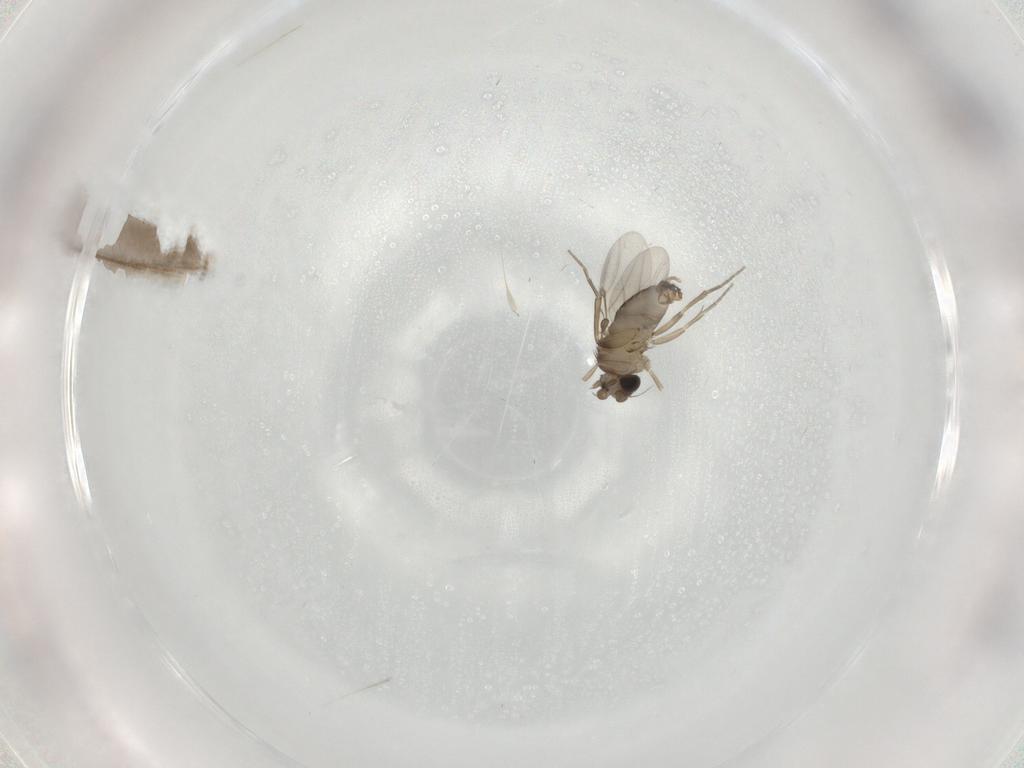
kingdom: Animalia
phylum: Arthropoda
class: Insecta
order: Diptera
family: Phoridae
